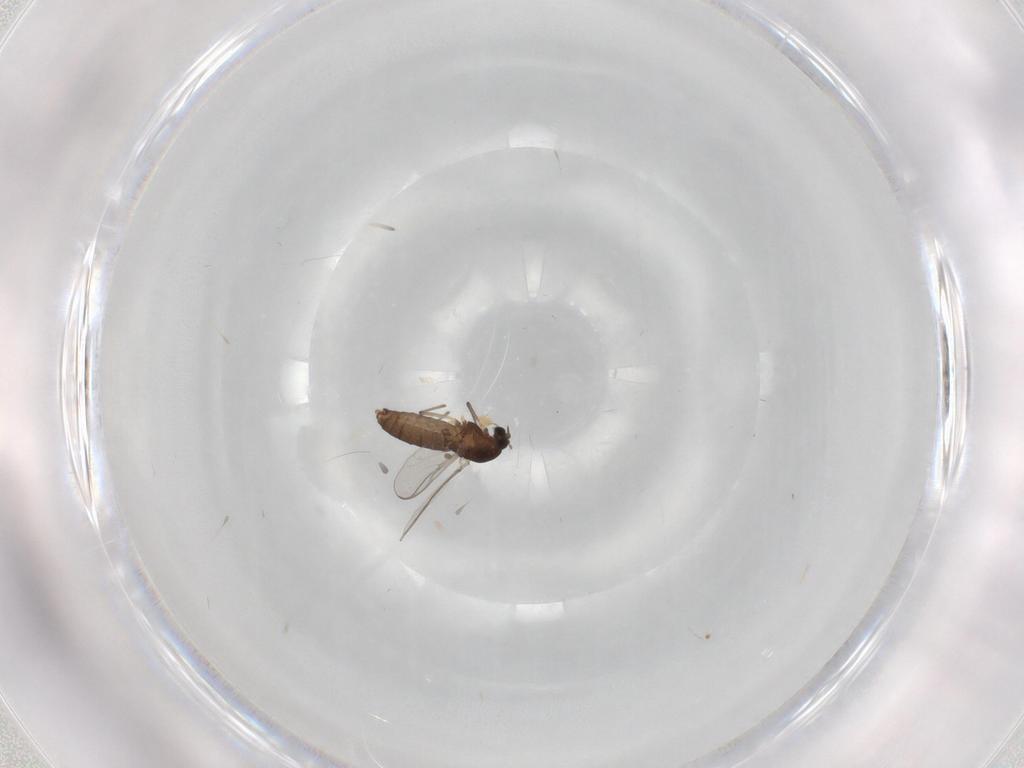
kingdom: Animalia
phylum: Arthropoda
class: Insecta
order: Diptera
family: Chironomidae
